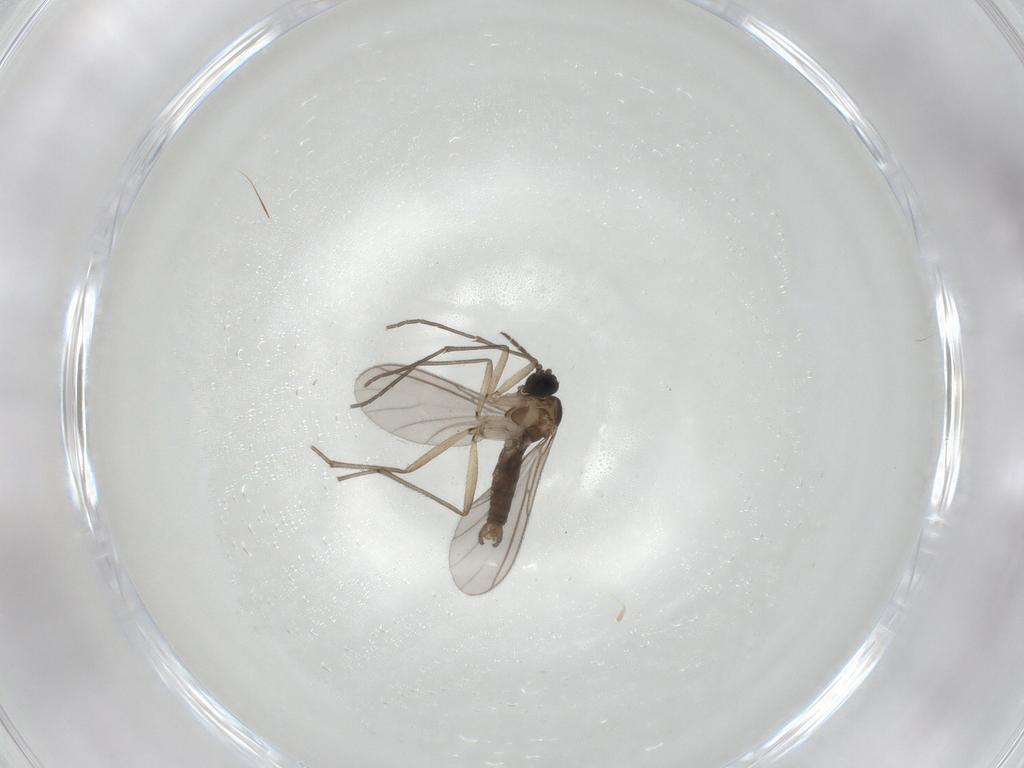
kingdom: Animalia
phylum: Arthropoda
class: Insecta
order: Diptera
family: Sciaridae
